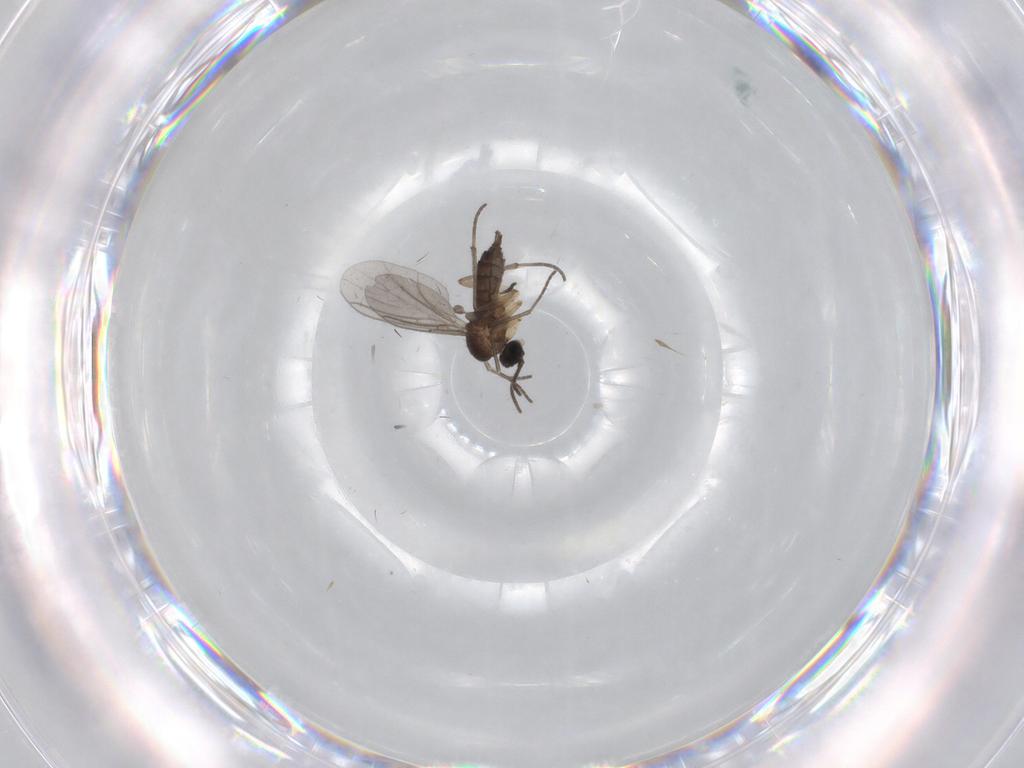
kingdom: Animalia
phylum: Arthropoda
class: Insecta
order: Diptera
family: Sciaridae
